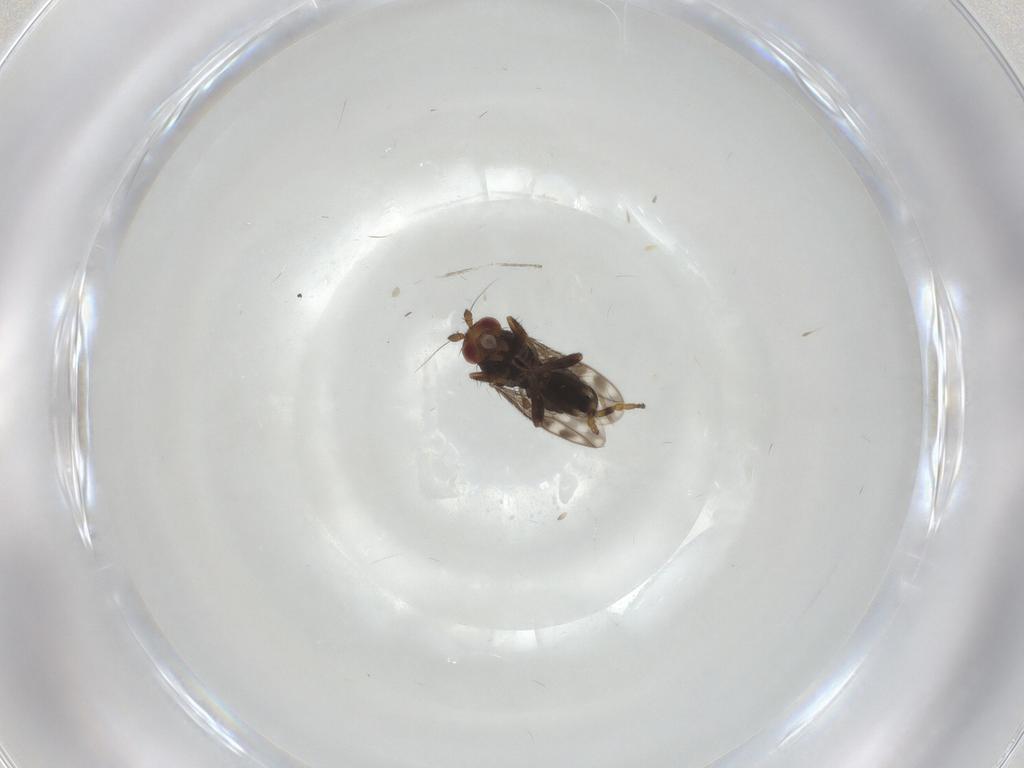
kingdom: Animalia
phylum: Arthropoda
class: Insecta
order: Diptera
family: Sphaeroceridae
